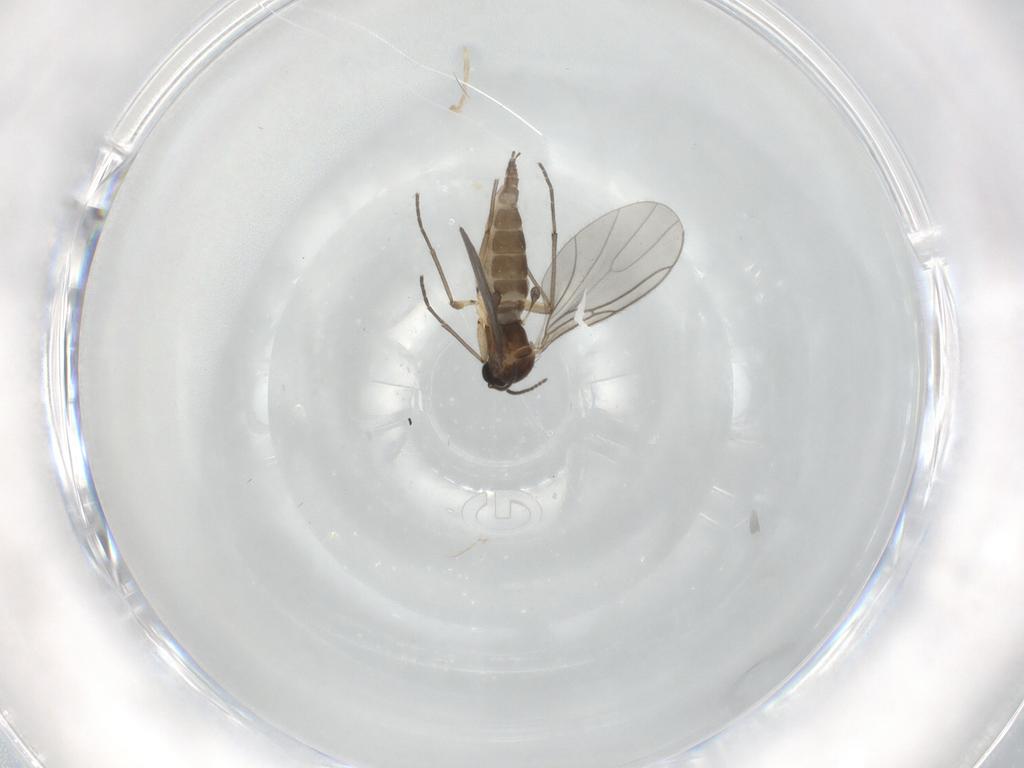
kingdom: Animalia
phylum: Arthropoda
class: Insecta
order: Diptera
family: Sciaridae
